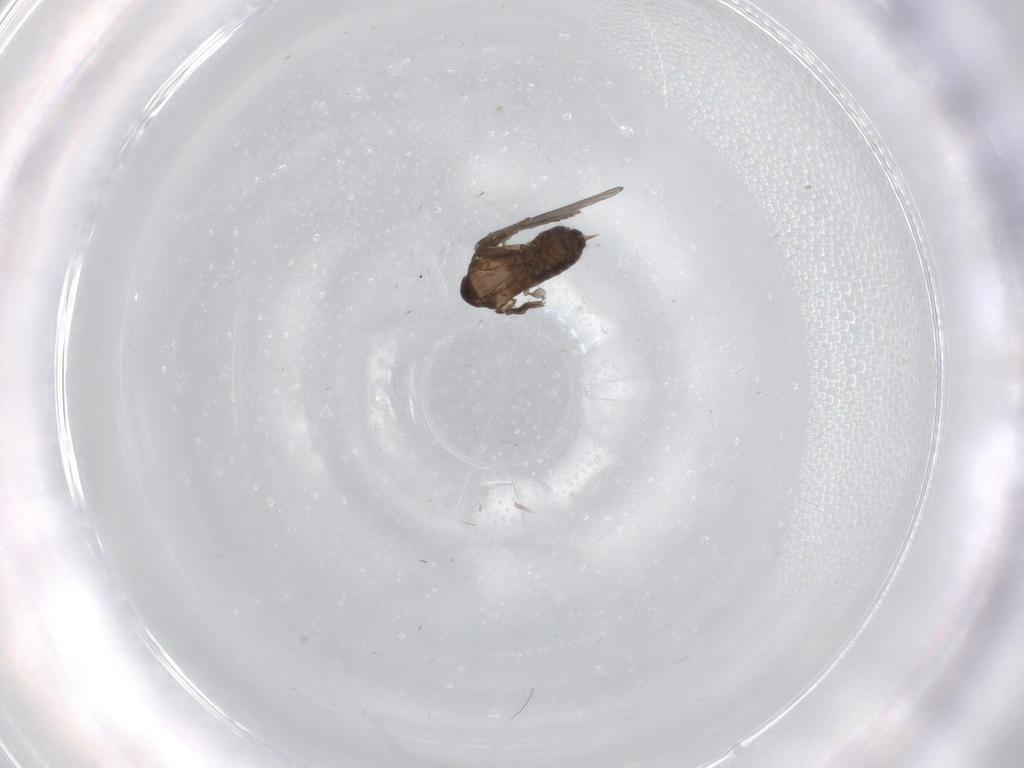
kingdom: Animalia
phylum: Arthropoda
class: Insecta
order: Diptera
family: Psychodidae
